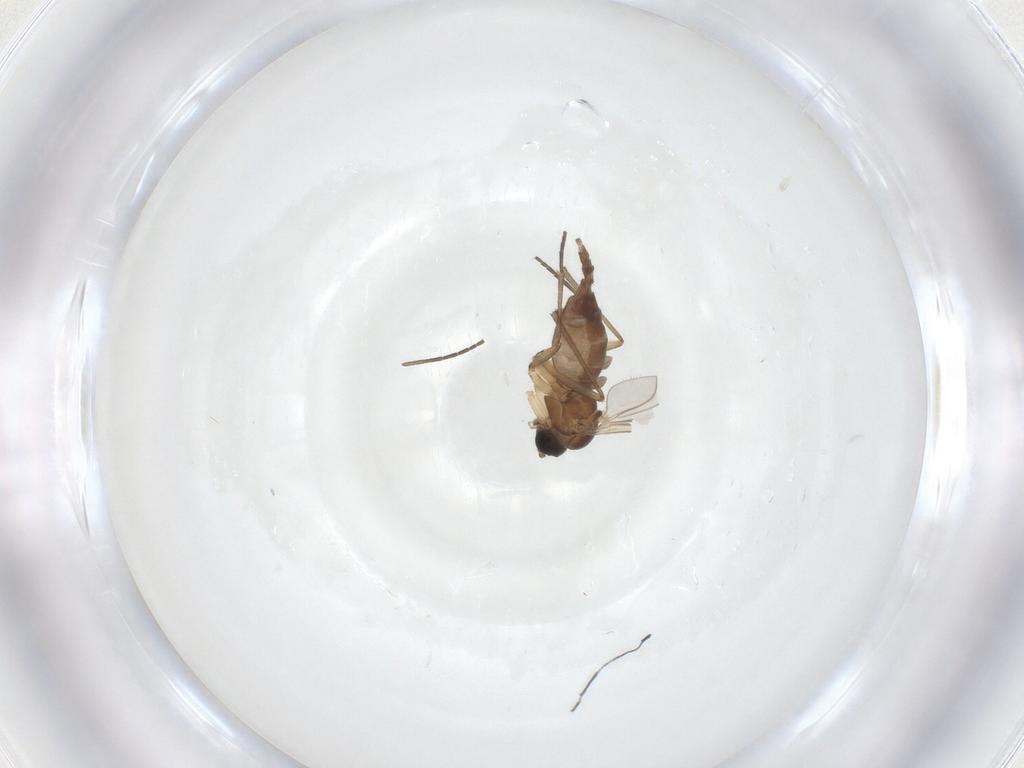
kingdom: Animalia
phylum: Arthropoda
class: Insecta
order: Diptera
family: Sciaridae
